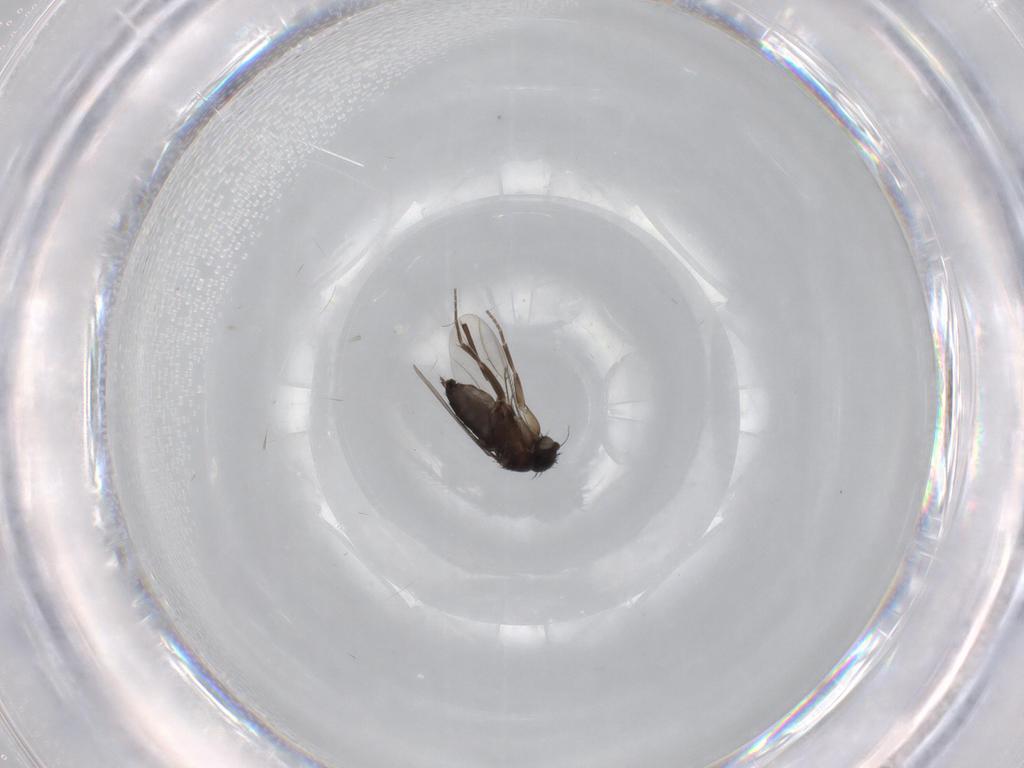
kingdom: Animalia
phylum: Arthropoda
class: Insecta
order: Diptera
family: Phoridae
